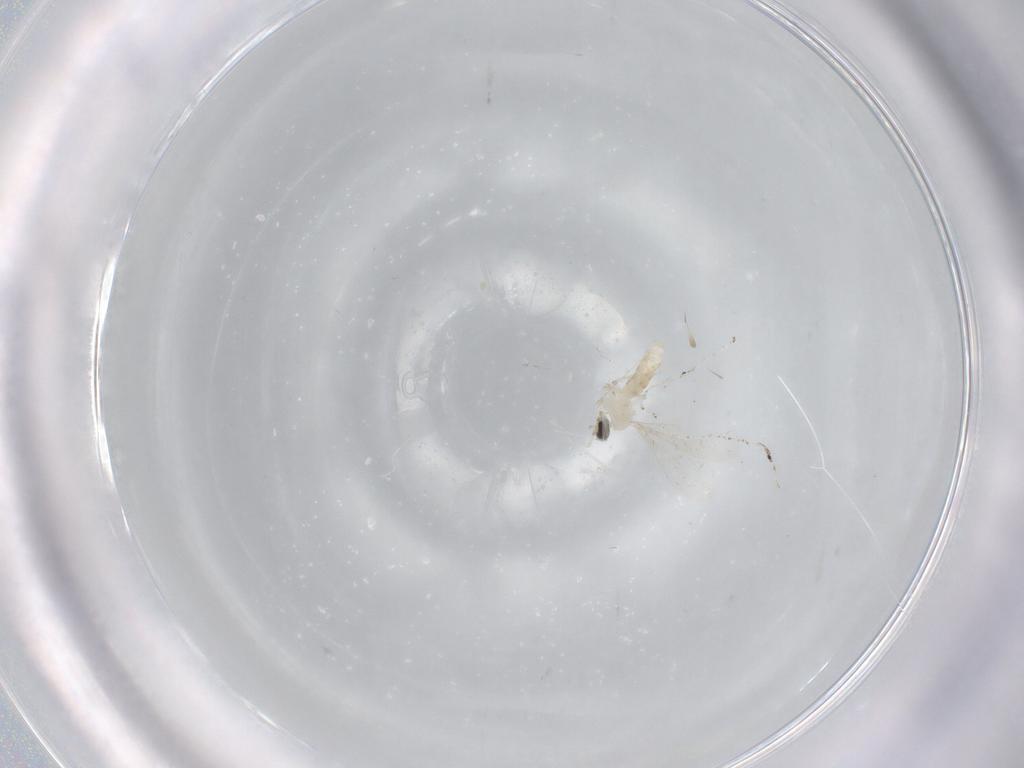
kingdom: Animalia
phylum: Arthropoda
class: Insecta
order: Diptera
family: Cecidomyiidae
